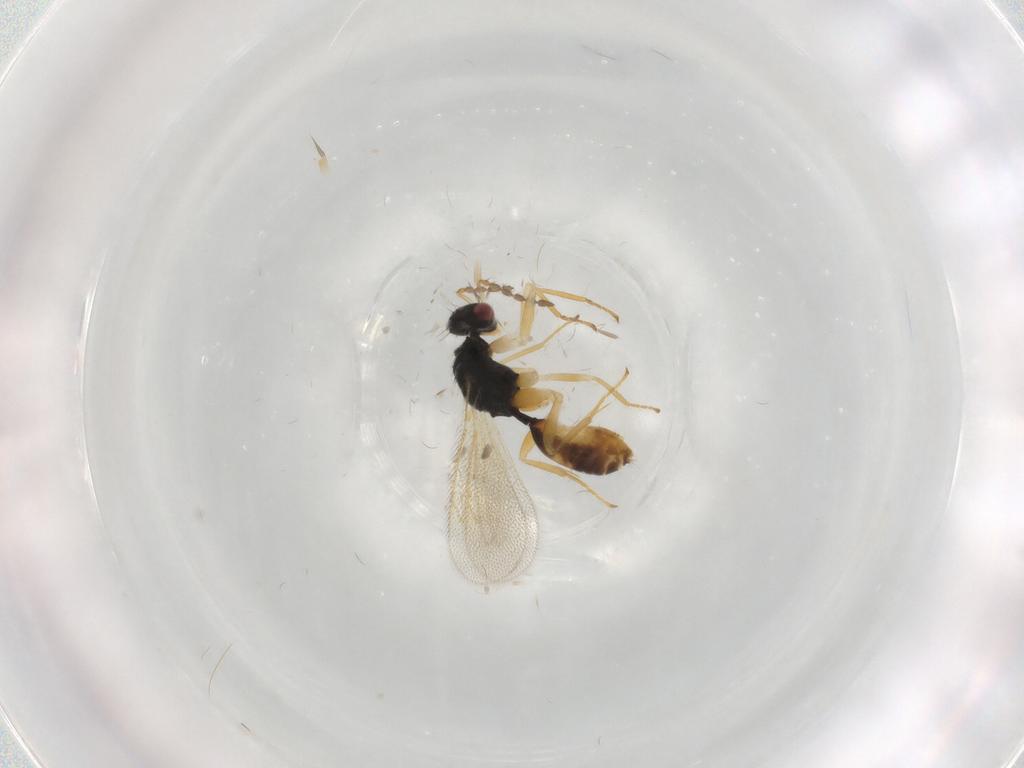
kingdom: Animalia
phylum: Arthropoda
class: Insecta
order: Hymenoptera
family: Eulophidae
